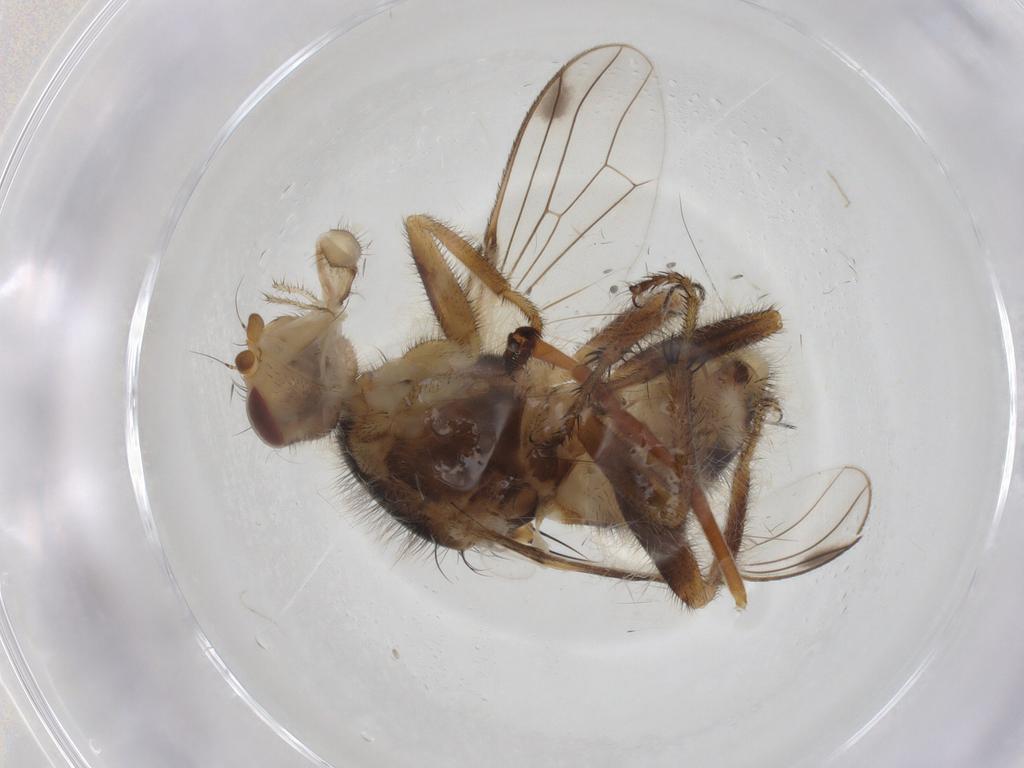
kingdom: Animalia
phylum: Arthropoda
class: Insecta
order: Diptera
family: Richardiidae
